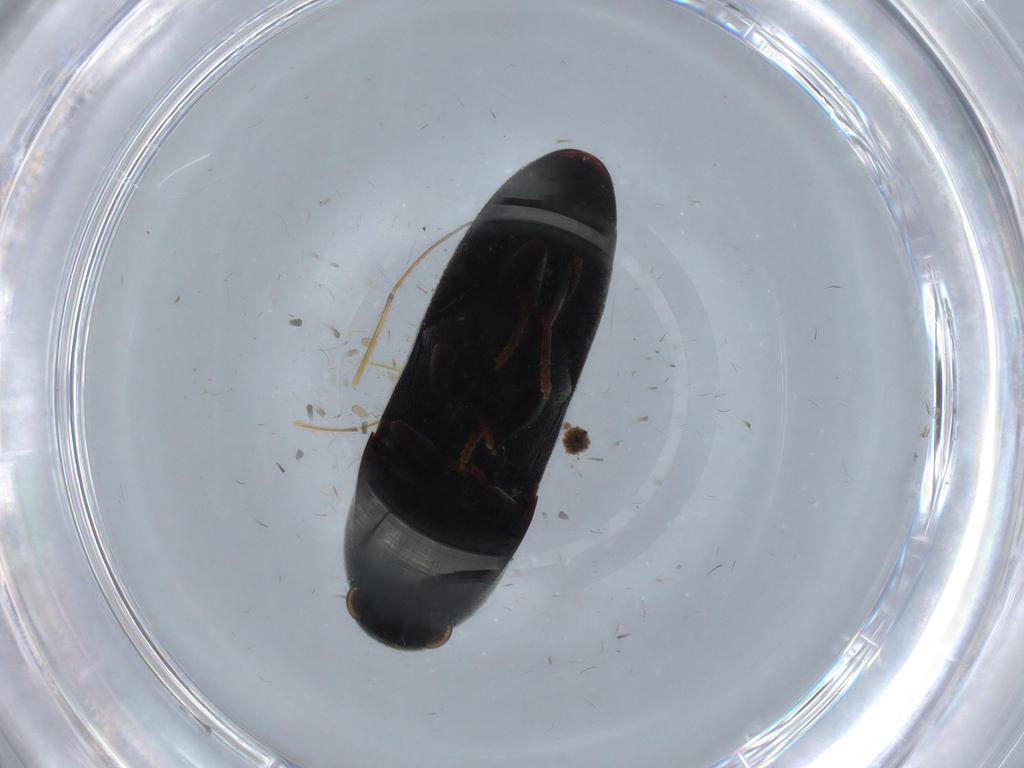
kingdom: Animalia
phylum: Arthropoda
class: Insecta
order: Coleoptera
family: Eucnemidae
